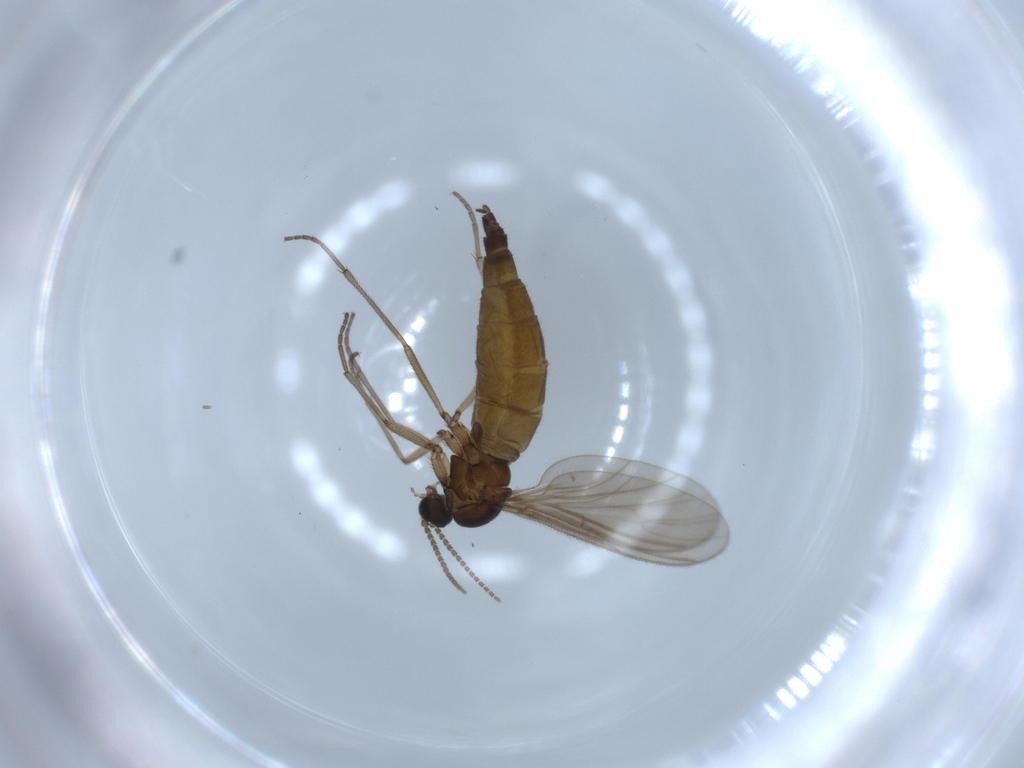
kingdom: Animalia
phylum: Arthropoda
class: Insecta
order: Diptera
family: Sciaridae
